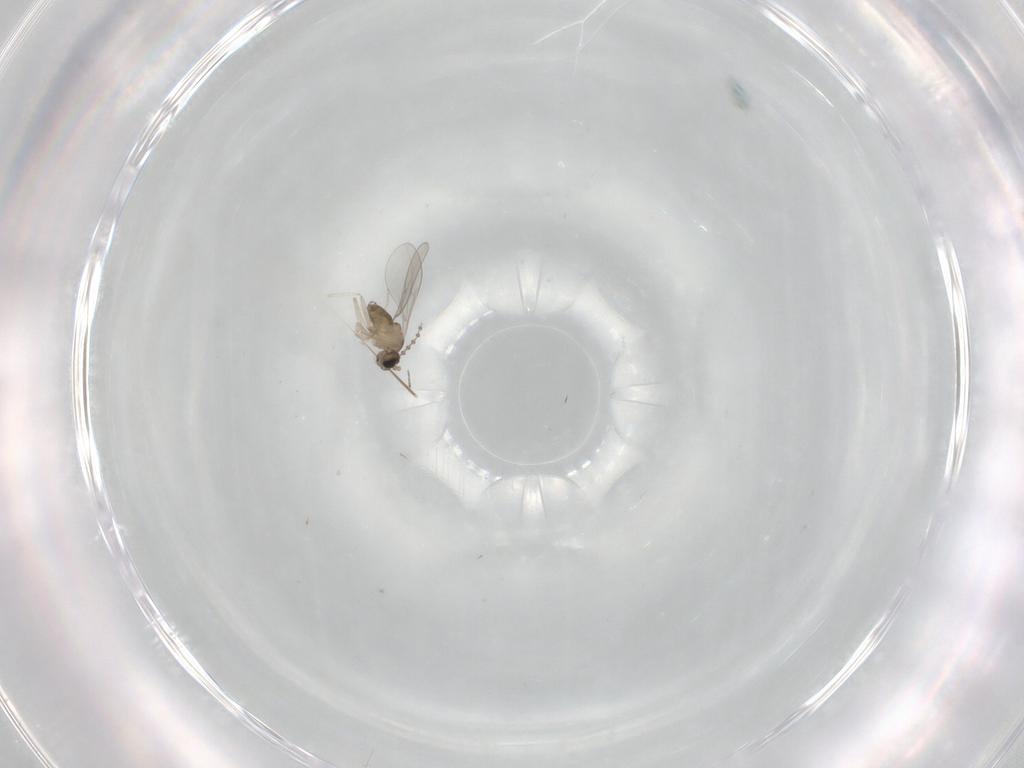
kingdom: Animalia
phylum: Arthropoda
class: Insecta
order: Diptera
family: Cecidomyiidae
